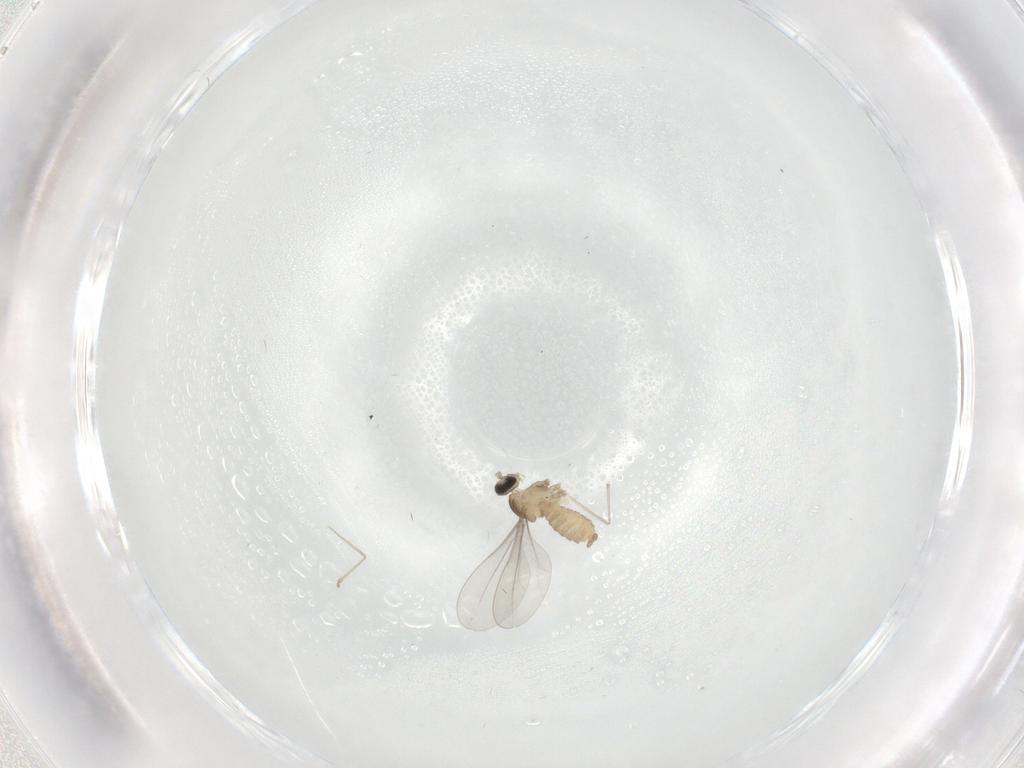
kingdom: Animalia
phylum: Arthropoda
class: Insecta
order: Diptera
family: Cecidomyiidae
